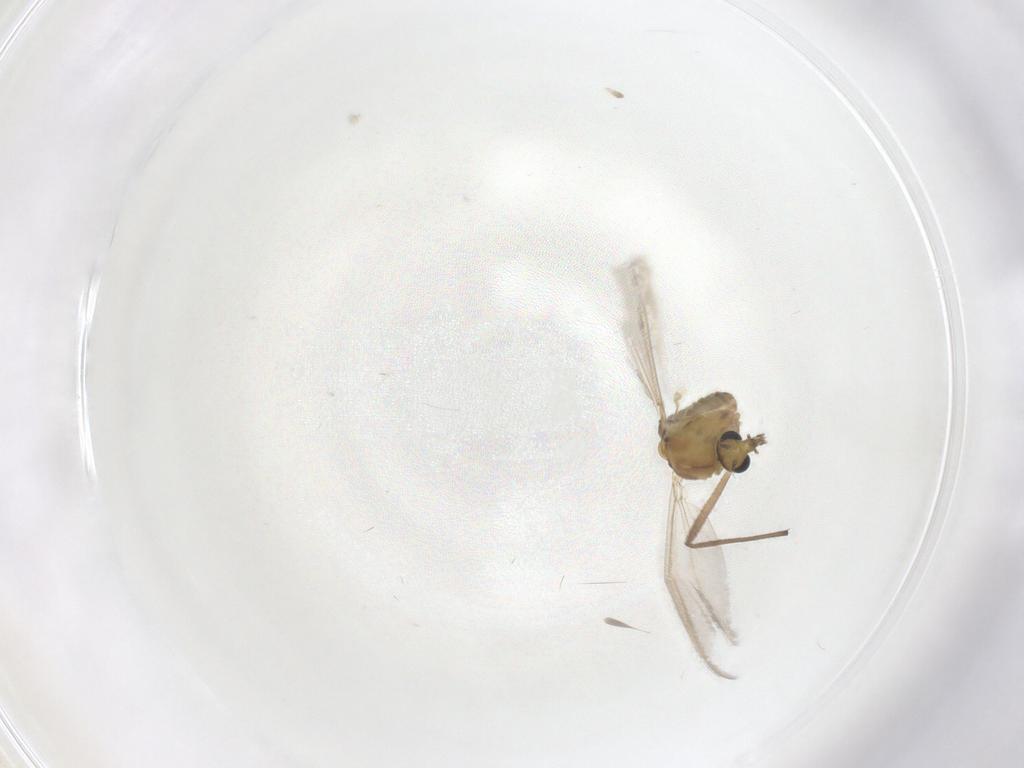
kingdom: Animalia
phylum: Arthropoda
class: Insecta
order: Diptera
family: Chironomidae
